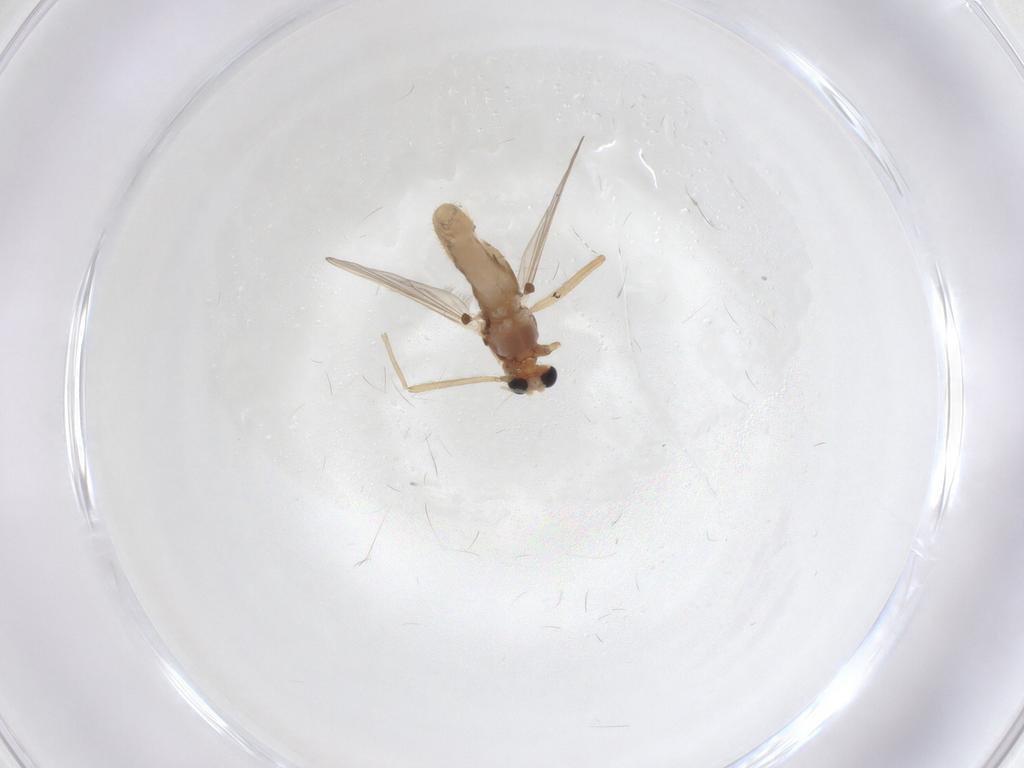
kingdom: Animalia
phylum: Arthropoda
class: Insecta
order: Diptera
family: Chironomidae
